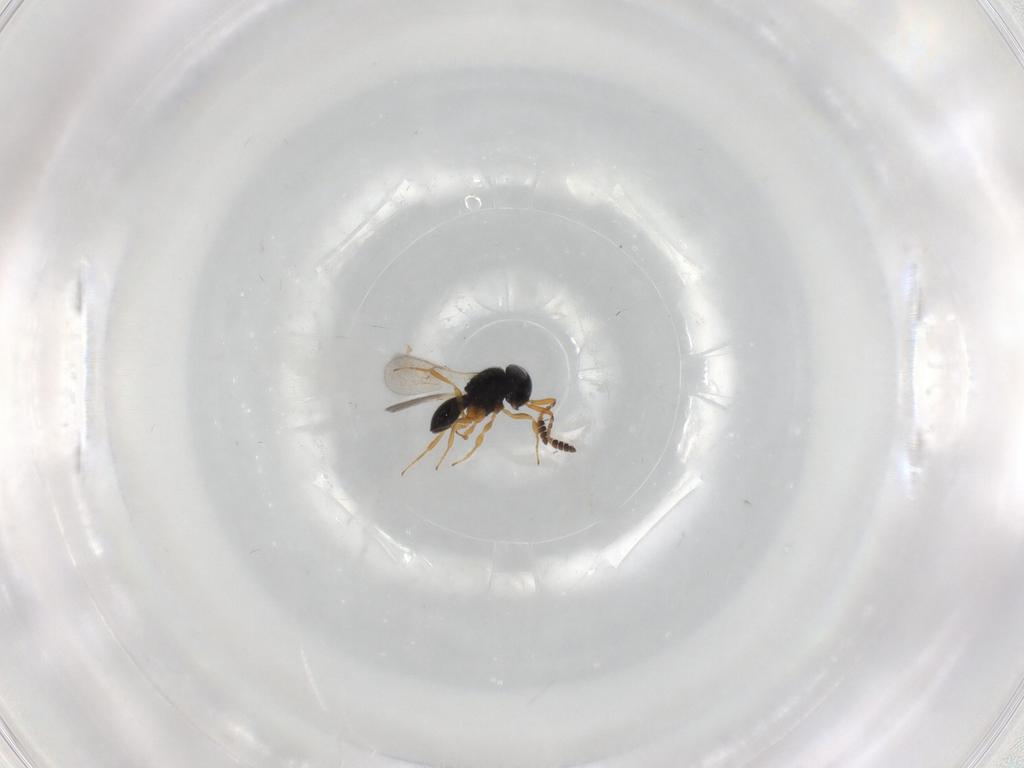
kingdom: Animalia
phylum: Arthropoda
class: Insecta
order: Hymenoptera
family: Scelionidae
